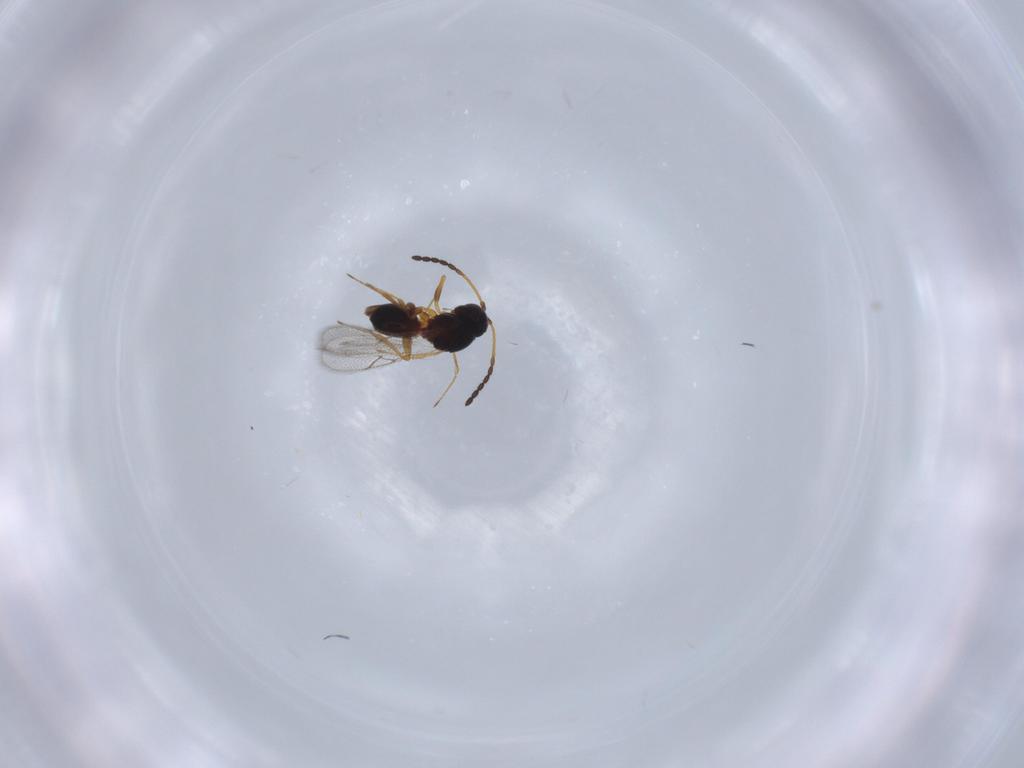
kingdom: Animalia
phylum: Arthropoda
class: Insecta
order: Hymenoptera
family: Figitidae
